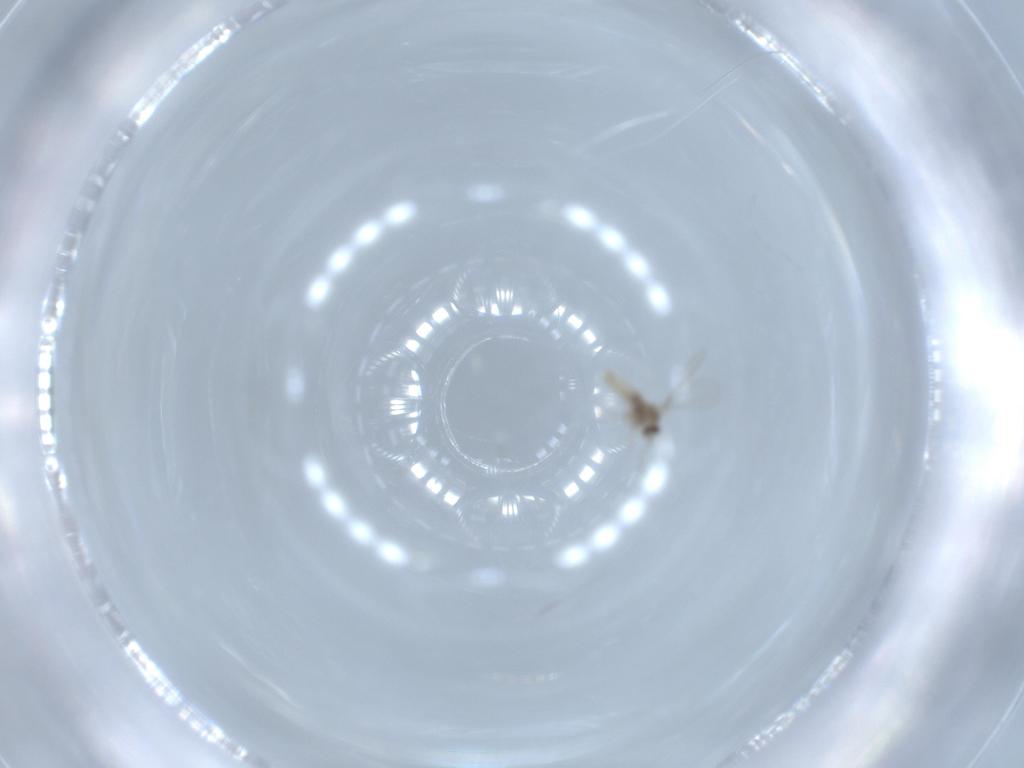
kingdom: Animalia
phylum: Arthropoda
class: Insecta
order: Diptera
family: Cecidomyiidae
